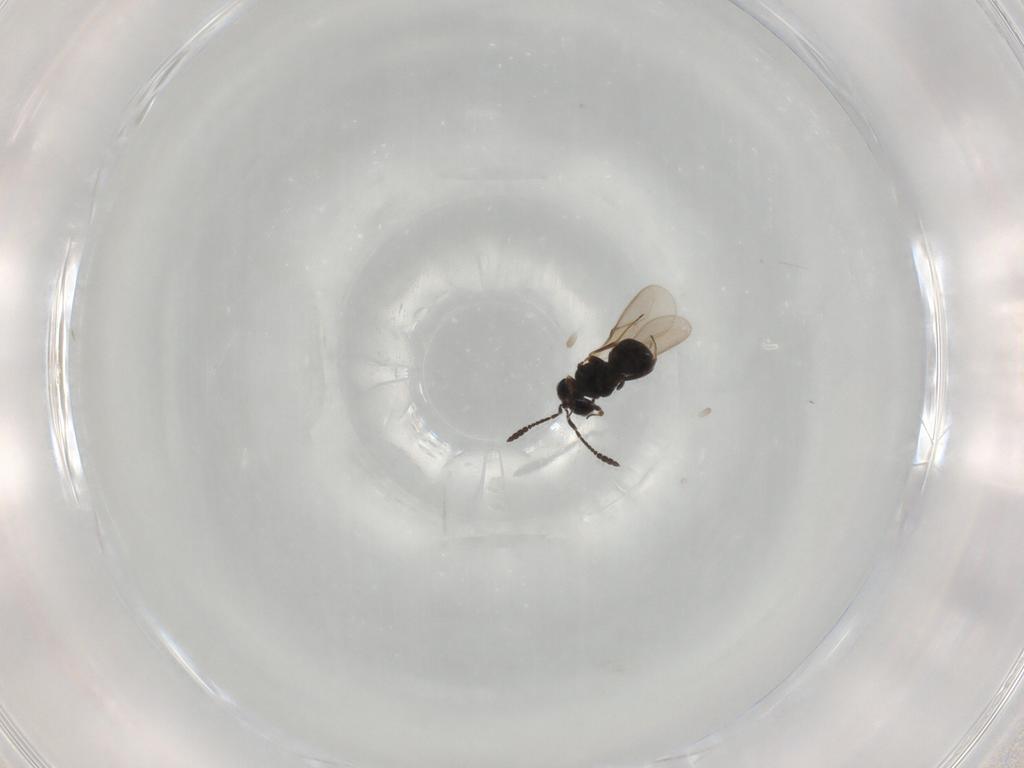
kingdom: Animalia
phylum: Arthropoda
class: Insecta
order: Hymenoptera
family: Scelionidae
